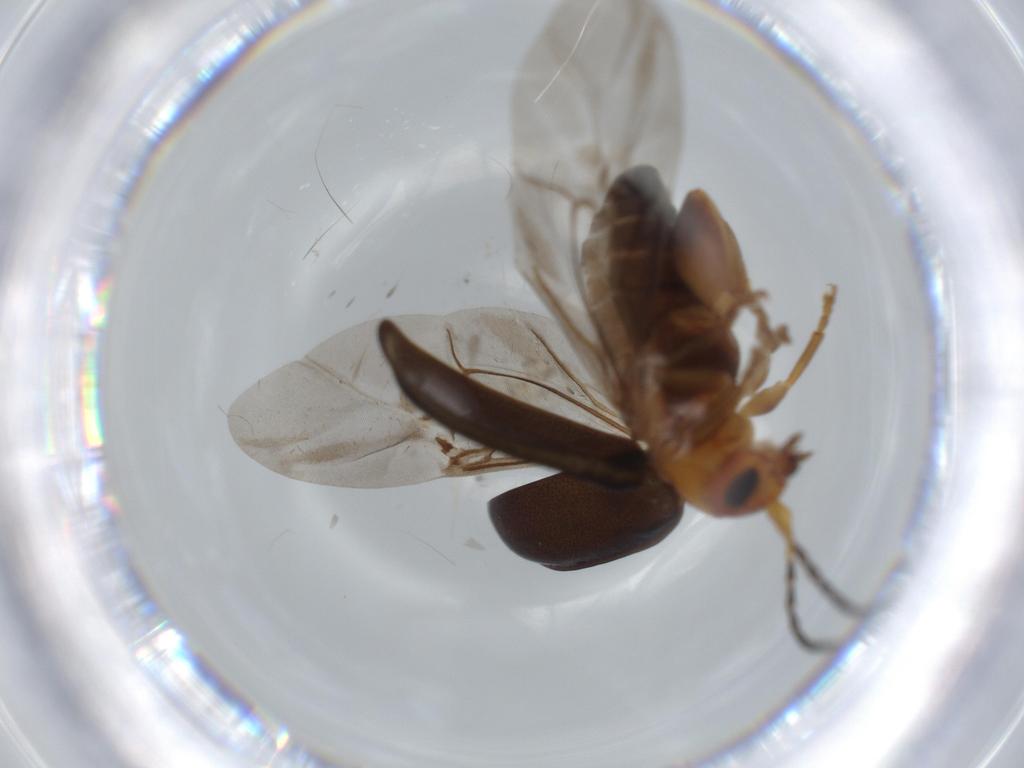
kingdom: Animalia
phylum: Arthropoda
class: Insecta
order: Coleoptera
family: Chrysomelidae
